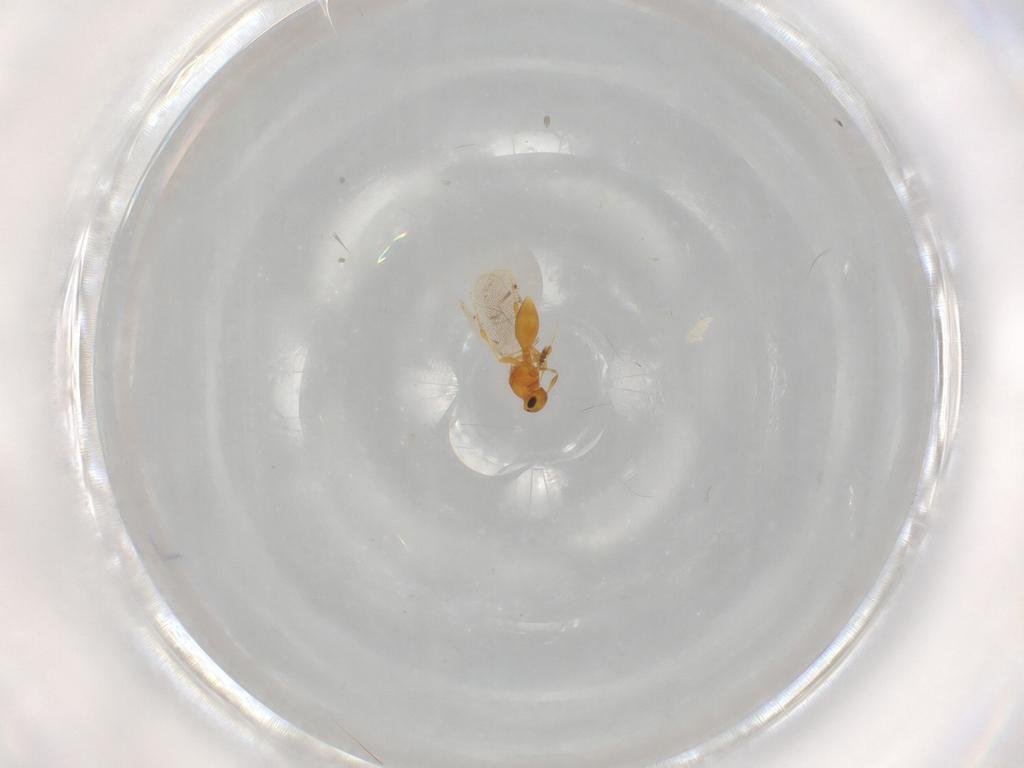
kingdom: Animalia
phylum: Arthropoda
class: Insecta
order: Hymenoptera
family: Platygastridae
